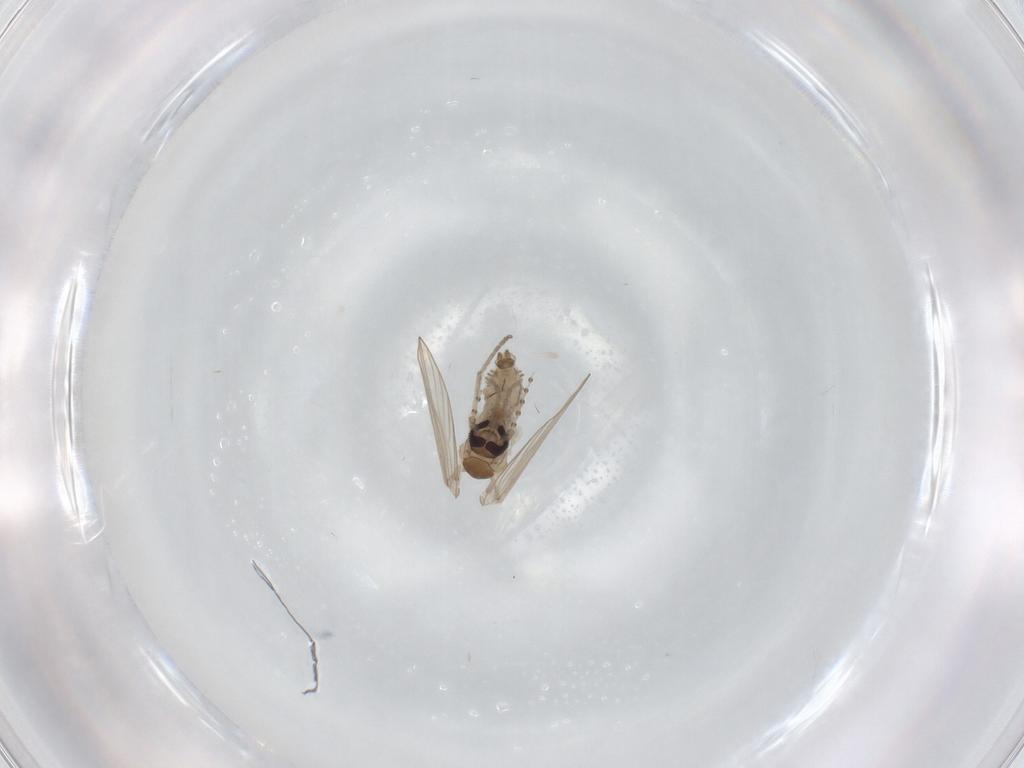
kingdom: Animalia
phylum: Arthropoda
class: Insecta
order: Diptera
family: Psychodidae
